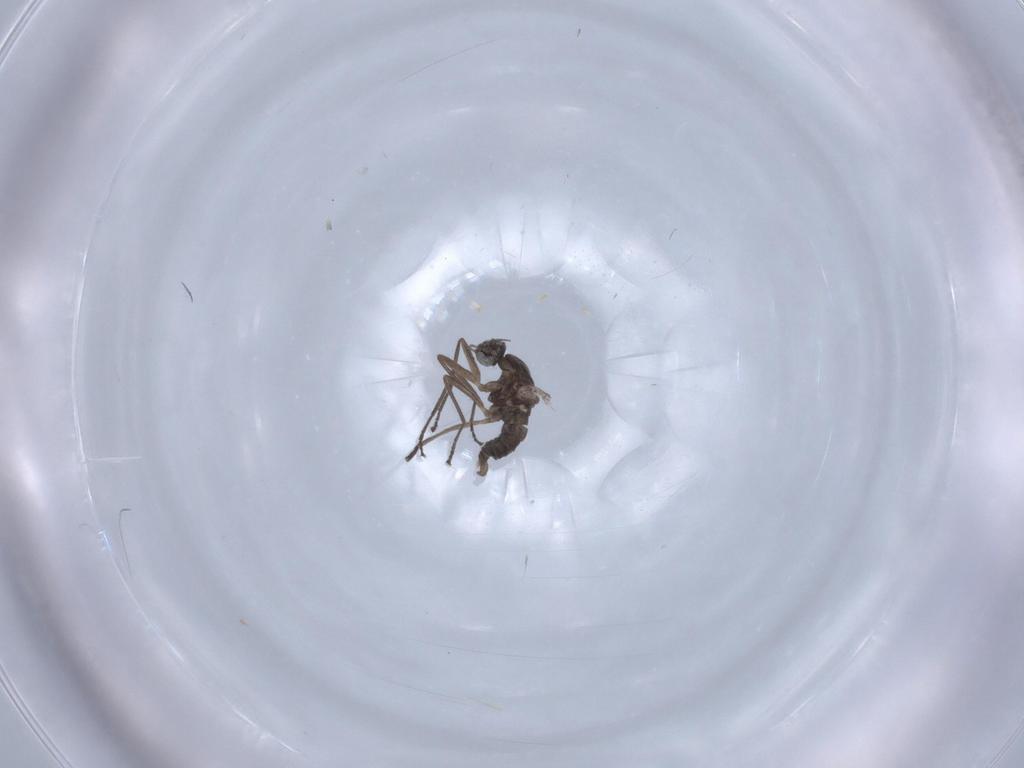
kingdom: Animalia
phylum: Arthropoda
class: Insecta
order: Diptera
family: Cecidomyiidae
